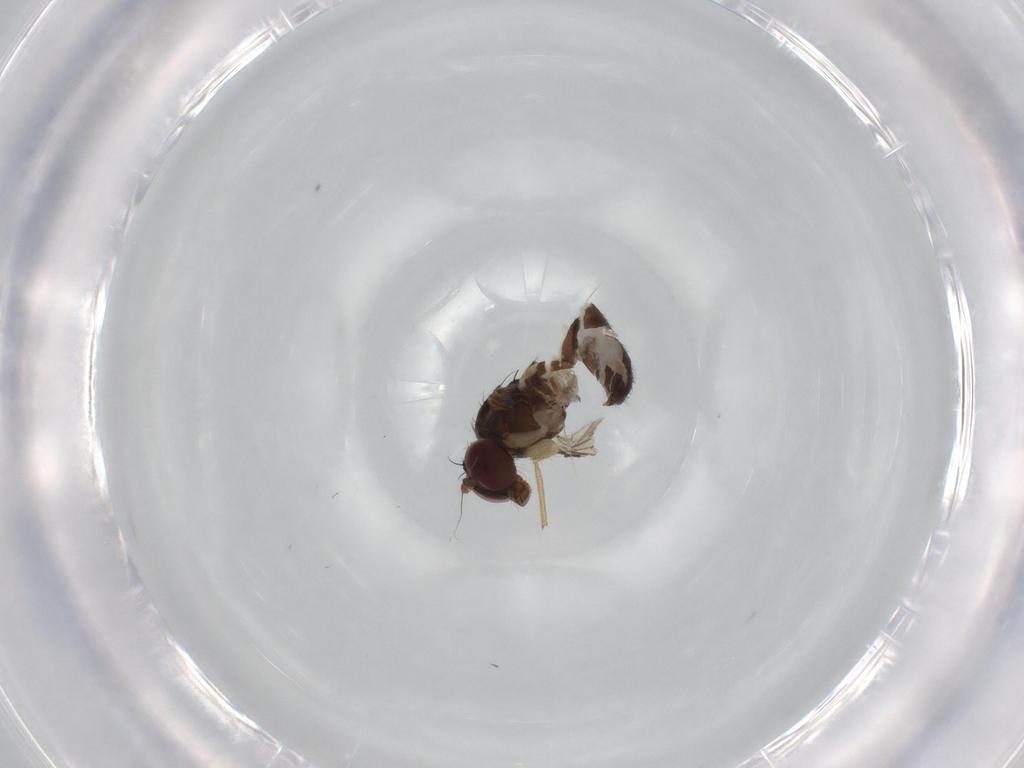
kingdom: Animalia
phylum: Arthropoda
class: Insecta
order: Diptera
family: Dolichopodidae
